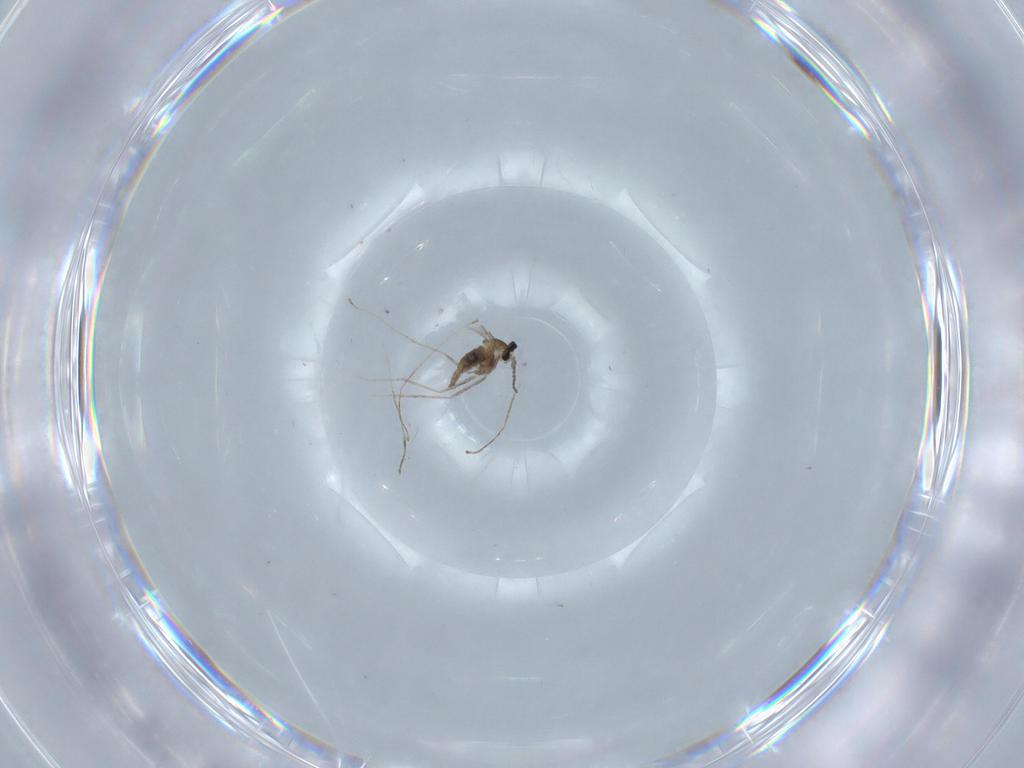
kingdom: Animalia
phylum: Arthropoda
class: Insecta
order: Diptera
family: Cecidomyiidae
